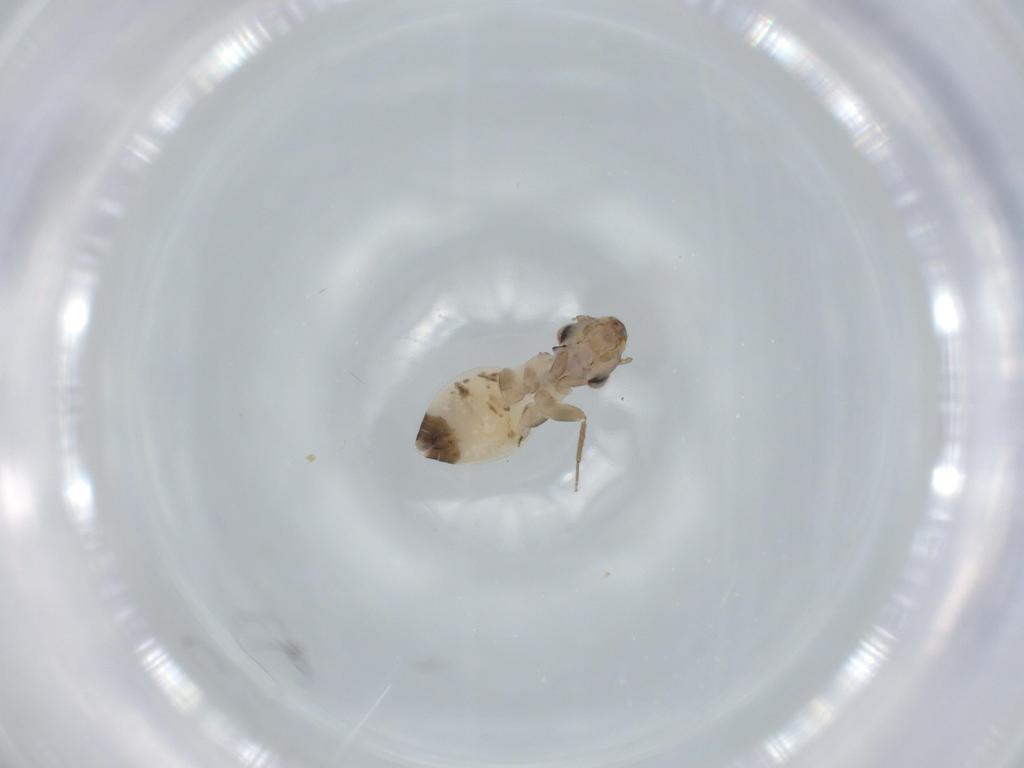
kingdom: Animalia
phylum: Arthropoda
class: Insecta
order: Psocodea
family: Lepidopsocidae
